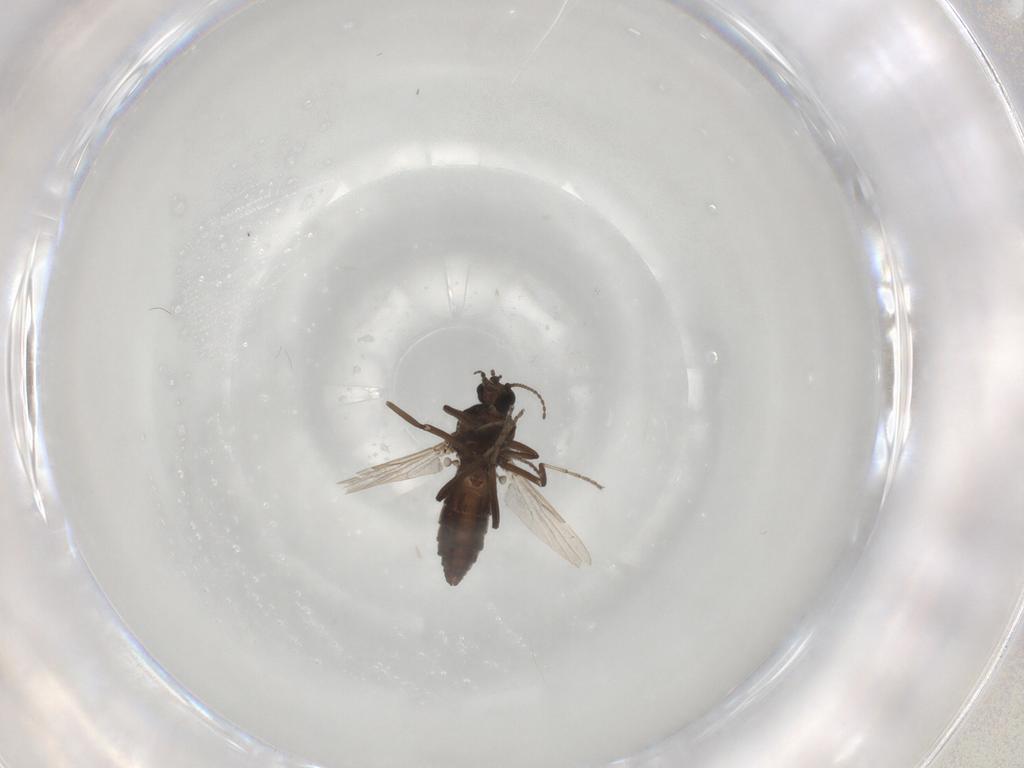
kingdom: Animalia
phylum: Arthropoda
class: Insecta
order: Diptera
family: Ceratopogonidae
